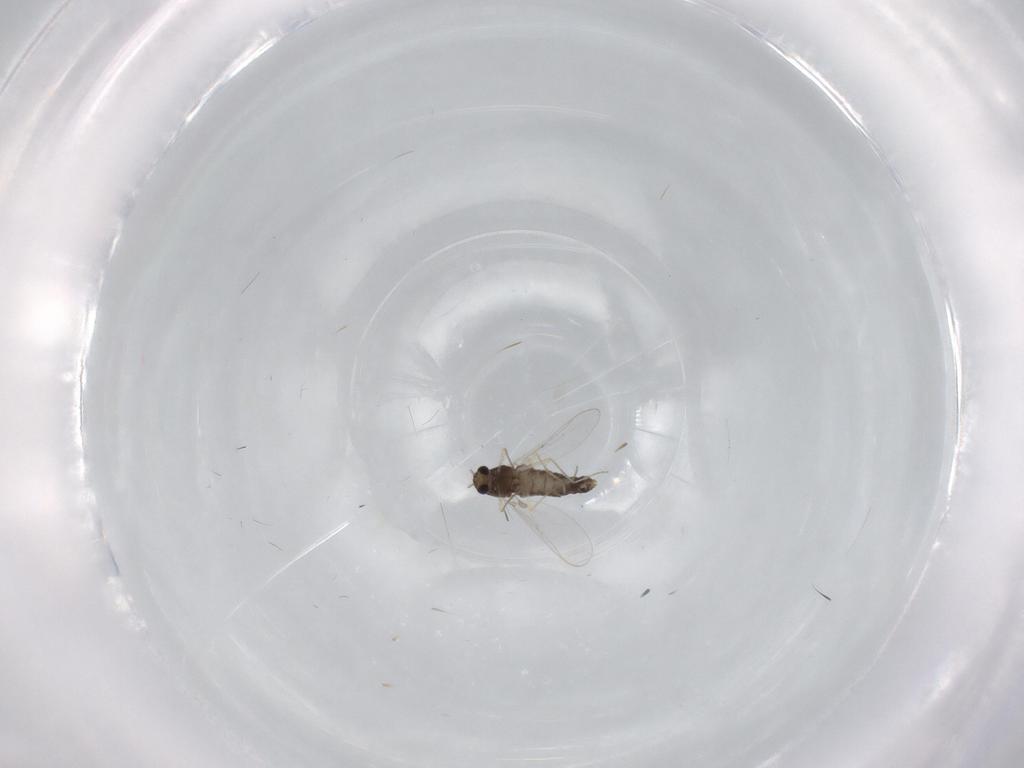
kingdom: Animalia
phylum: Arthropoda
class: Insecta
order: Diptera
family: Chironomidae
